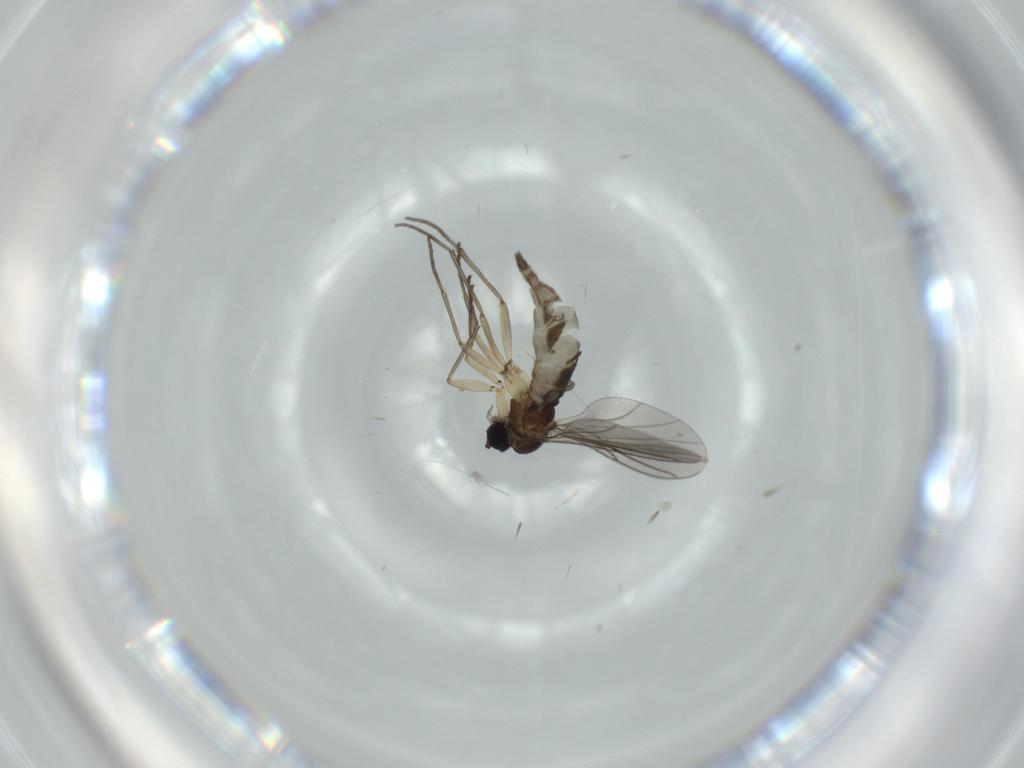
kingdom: Animalia
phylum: Arthropoda
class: Insecta
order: Diptera
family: Sciaridae
